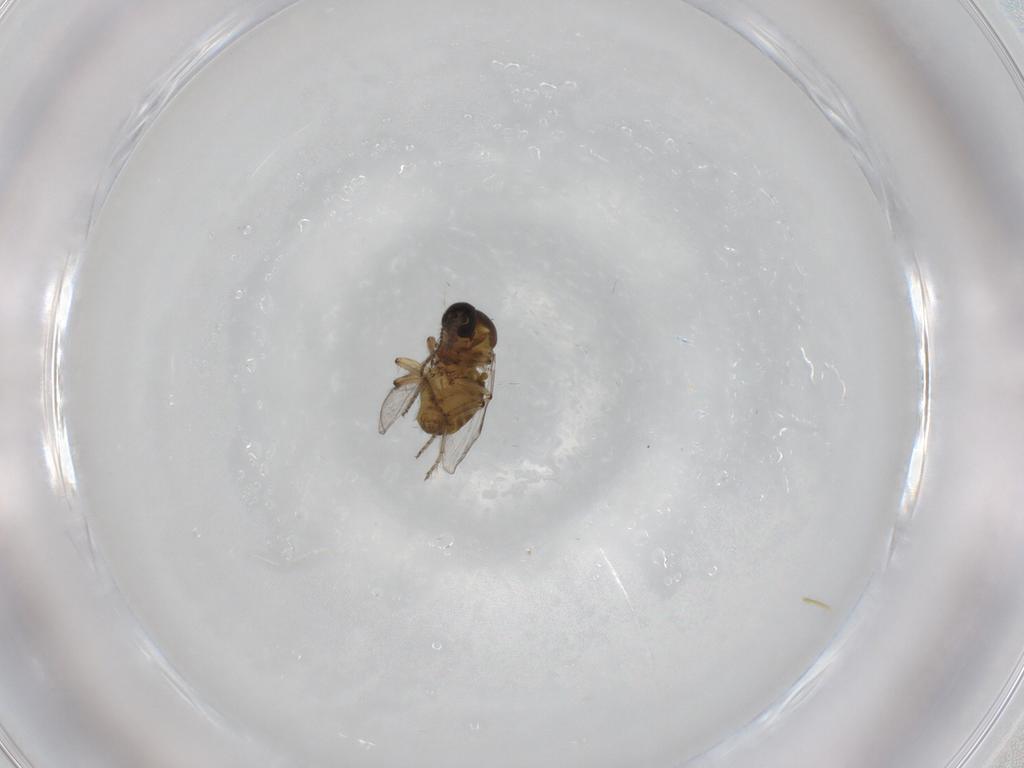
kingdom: Animalia
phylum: Arthropoda
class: Insecta
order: Diptera
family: Ceratopogonidae
